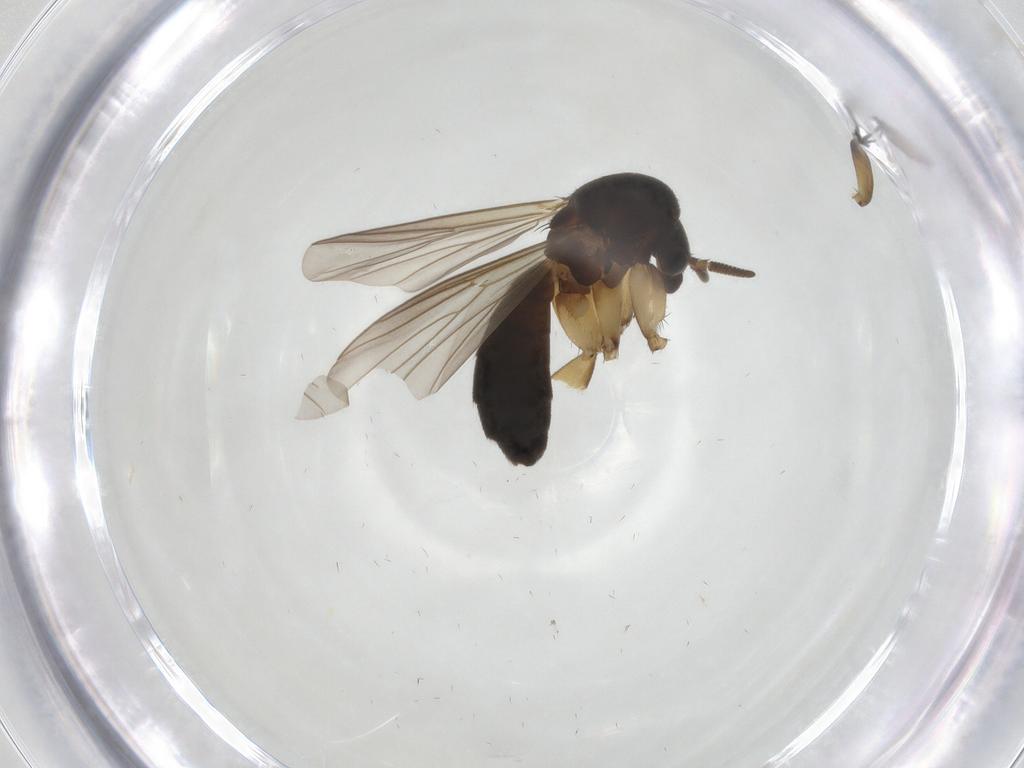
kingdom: Animalia
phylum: Arthropoda
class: Insecta
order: Diptera
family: Mycetophilidae
